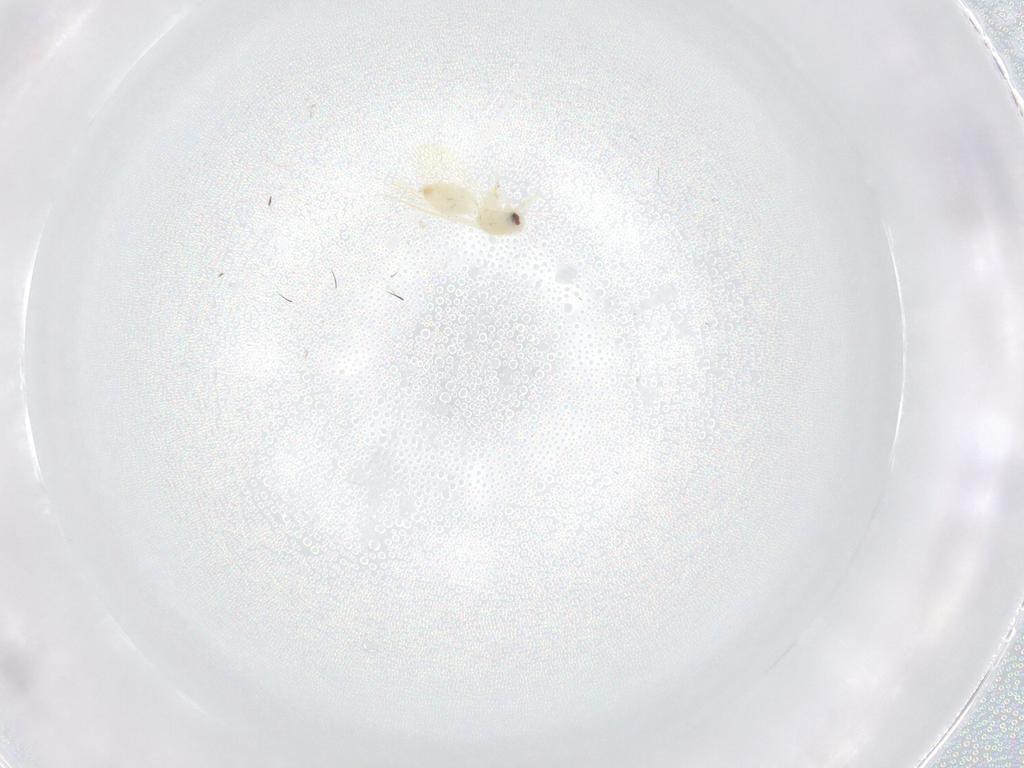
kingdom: Animalia
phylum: Arthropoda
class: Insecta
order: Hemiptera
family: Aleyrodidae
